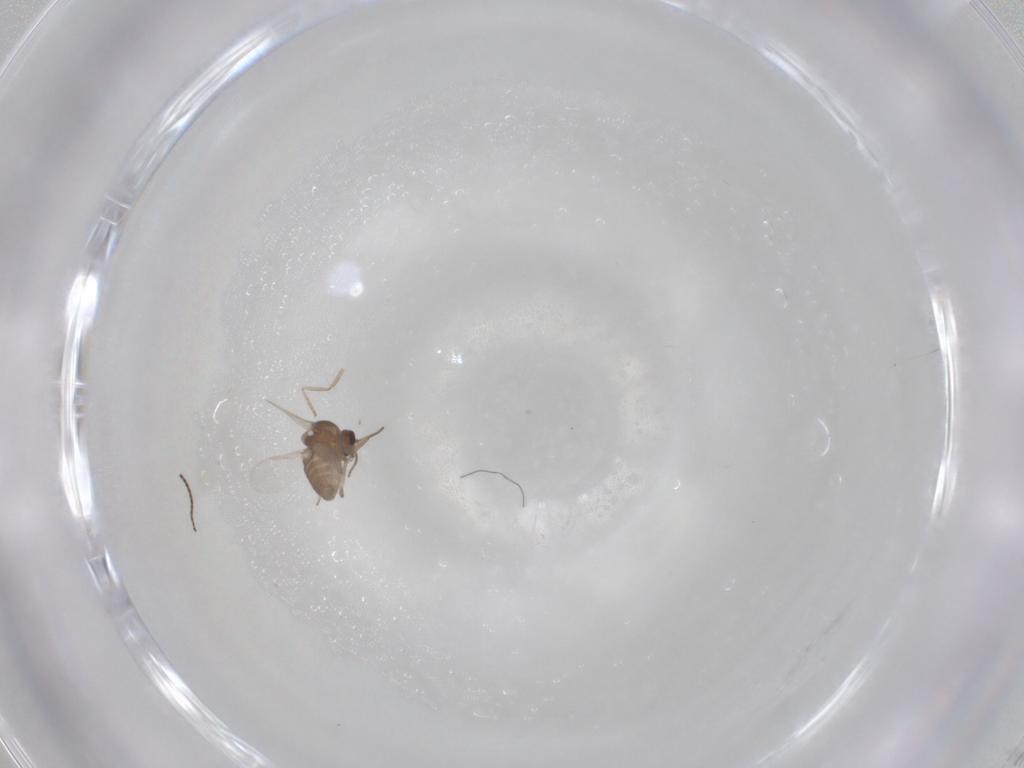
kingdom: Animalia
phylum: Arthropoda
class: Insecta
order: Diptera
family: Ceratopogonidae
